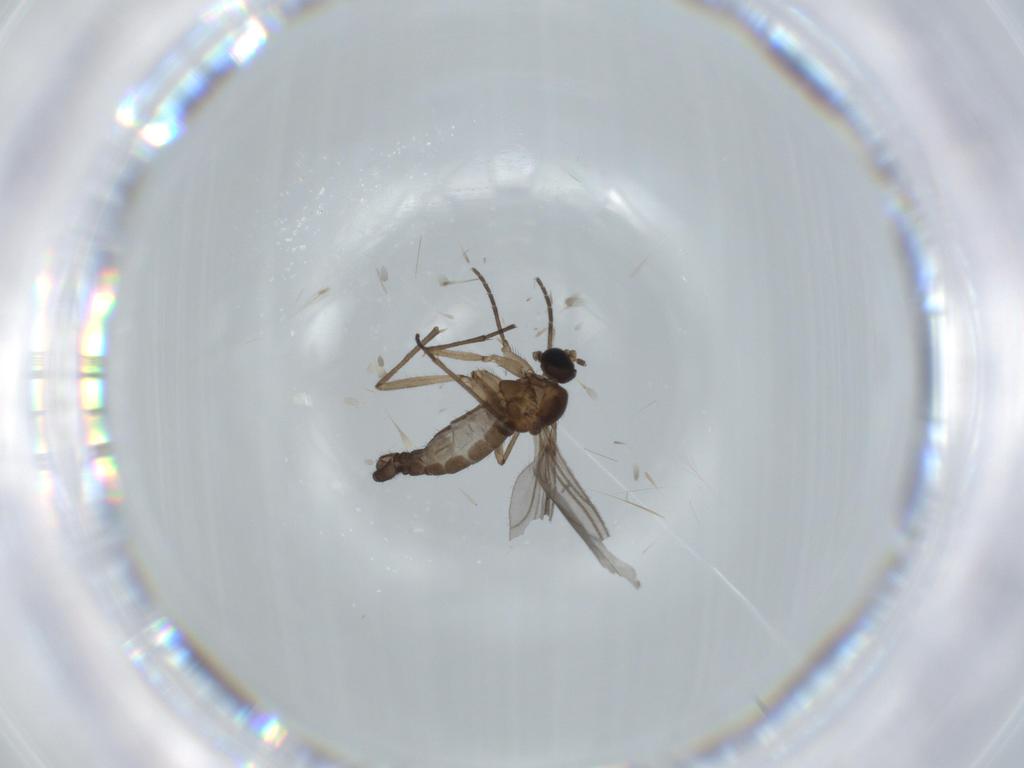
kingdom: Animalia
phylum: Arthropoda
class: Insecta
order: Diptera
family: Sciaridae
